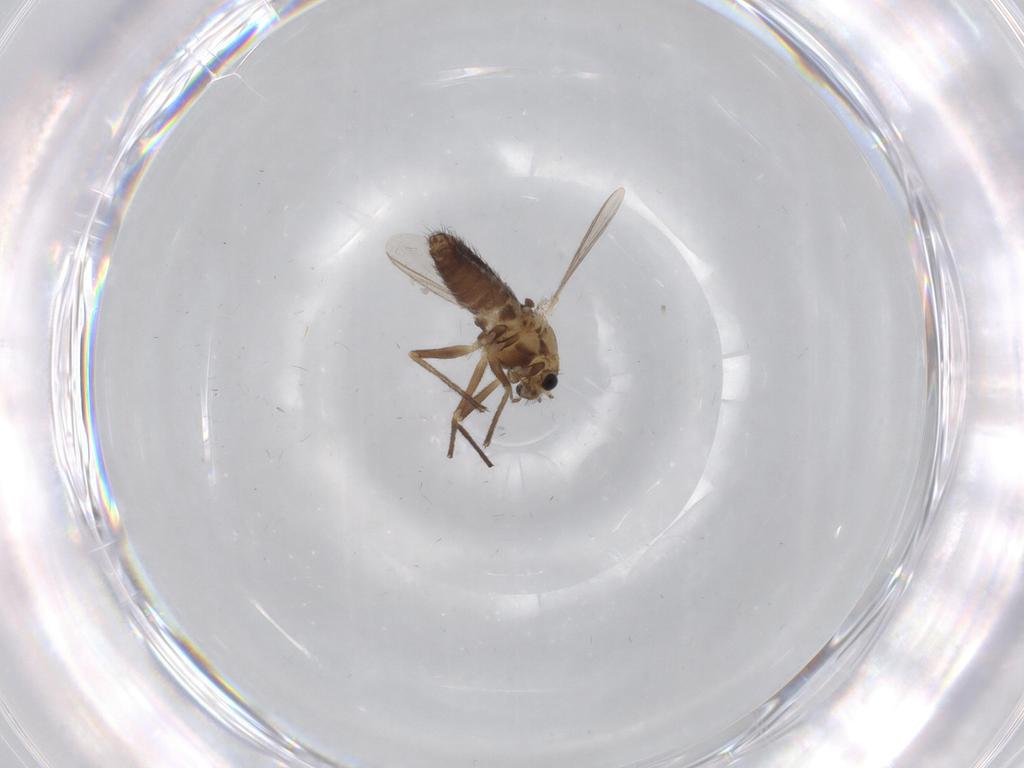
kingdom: Animalia
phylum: Arthropoda
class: Insecta
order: Diptera
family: Chironomidae
